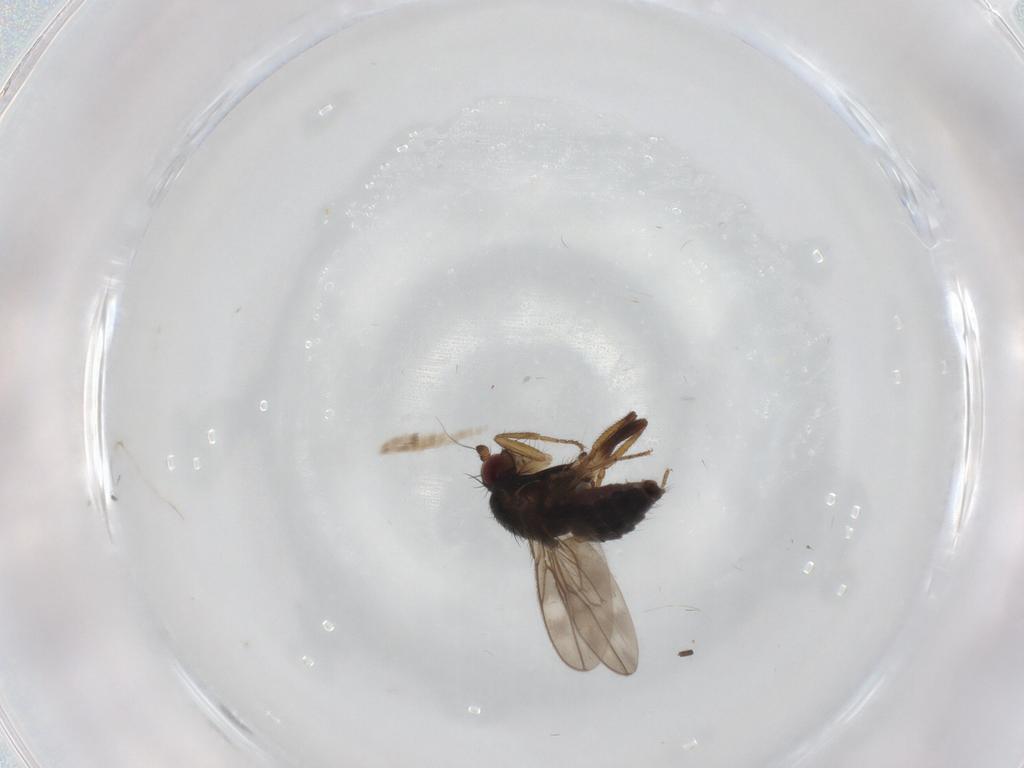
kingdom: Animalia
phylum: Arthropoda
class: Insecta
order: Diptera
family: Sphaeroceridae
